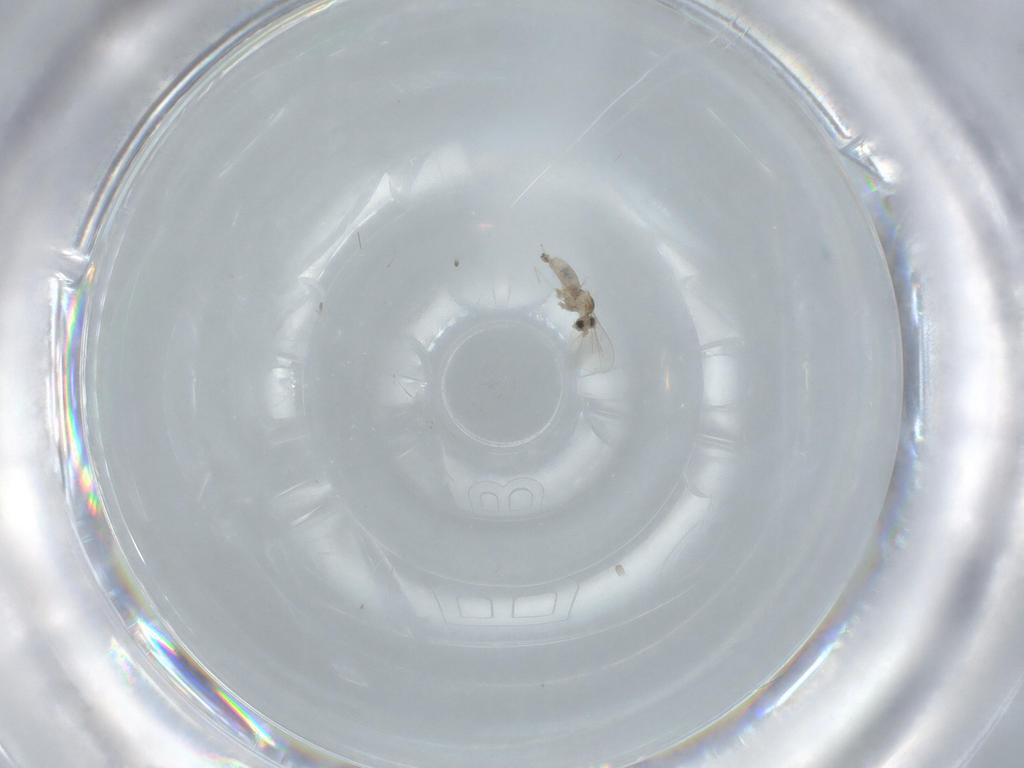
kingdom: Animalia
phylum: Arthropoda
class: Insecta
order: Diptera
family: Cecidomyiidae
